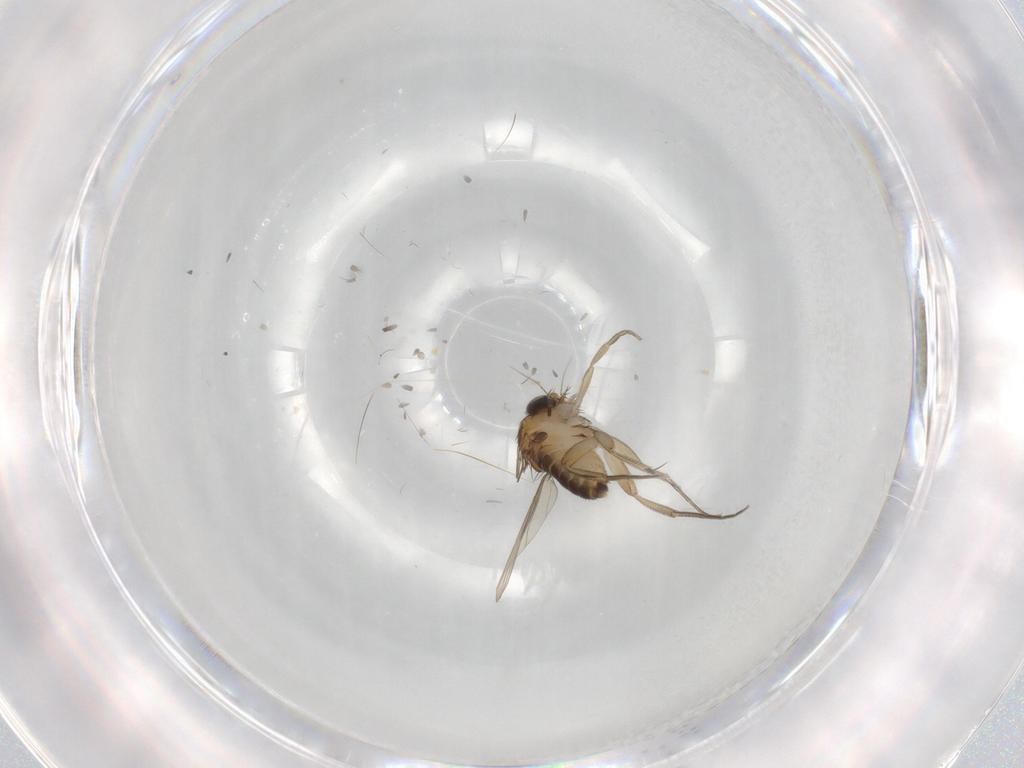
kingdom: Animalia
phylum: Arthropoda
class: Insecta
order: Diptera
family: Phoridae
